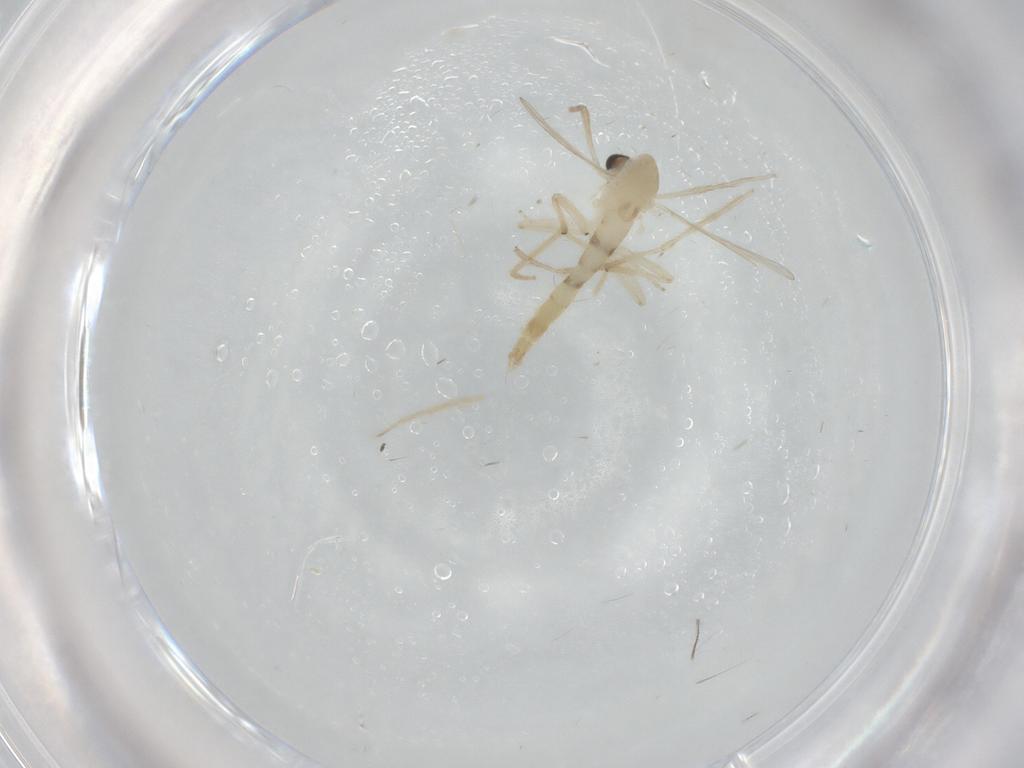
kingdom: Animalia
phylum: Arthropoda
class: Insecta
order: Diptera
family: Chironomidae
